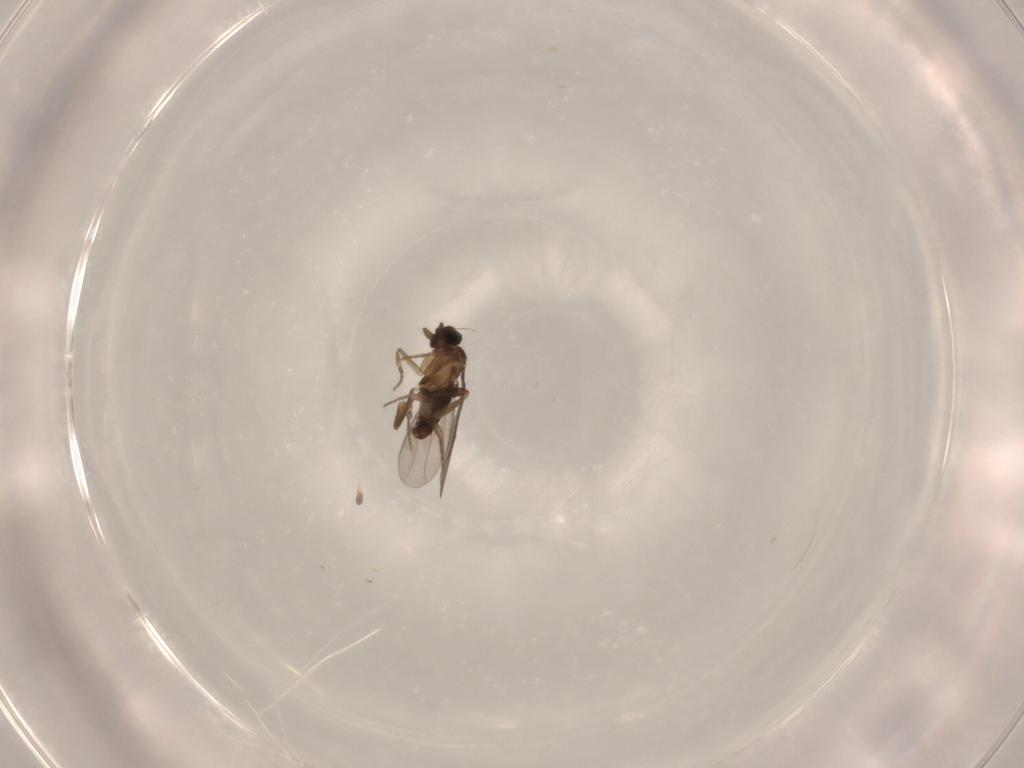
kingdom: Animalia
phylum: Arthropoda
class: Insecta
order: Diptera
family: Phoridae
